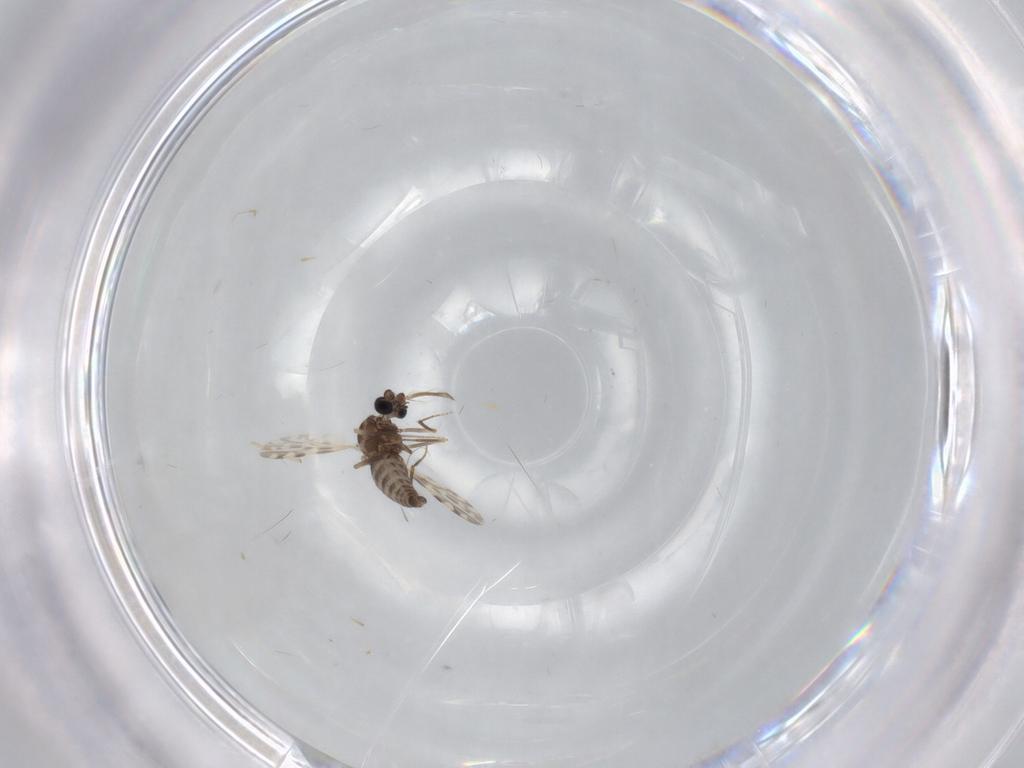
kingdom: Animalia
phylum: Arthropoda
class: Insecta
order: Diptera
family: Ceratopogonidae
